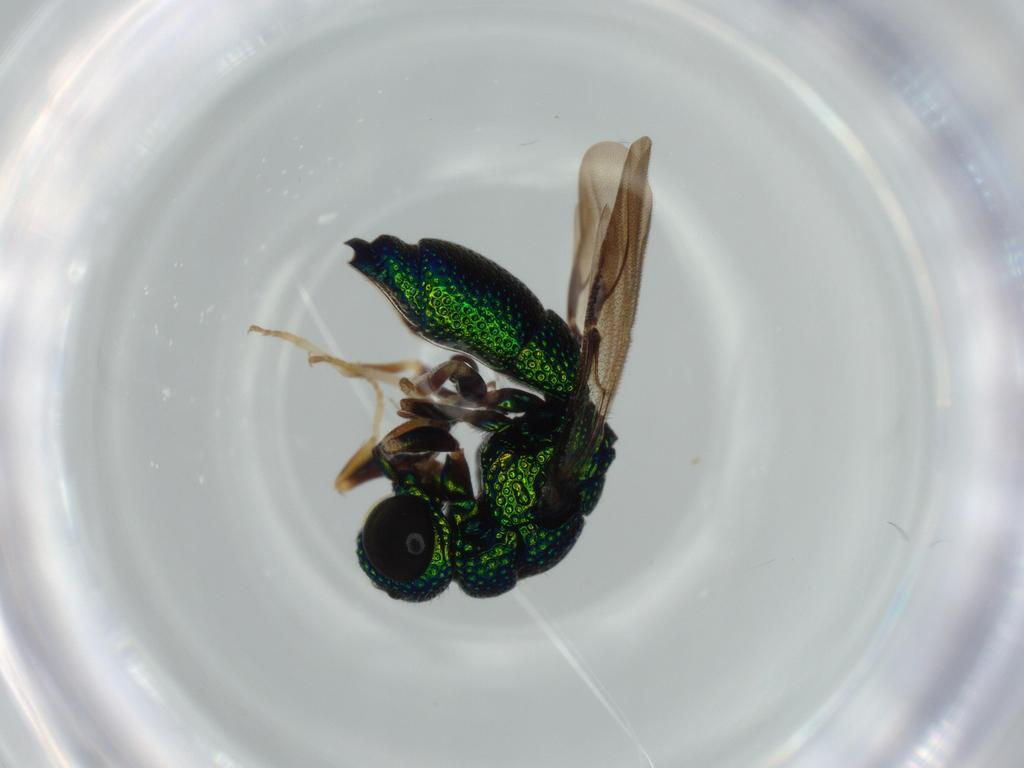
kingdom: Animalia
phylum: Arthropoda
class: Insecta
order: Hymenoptera
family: Chrysididae
